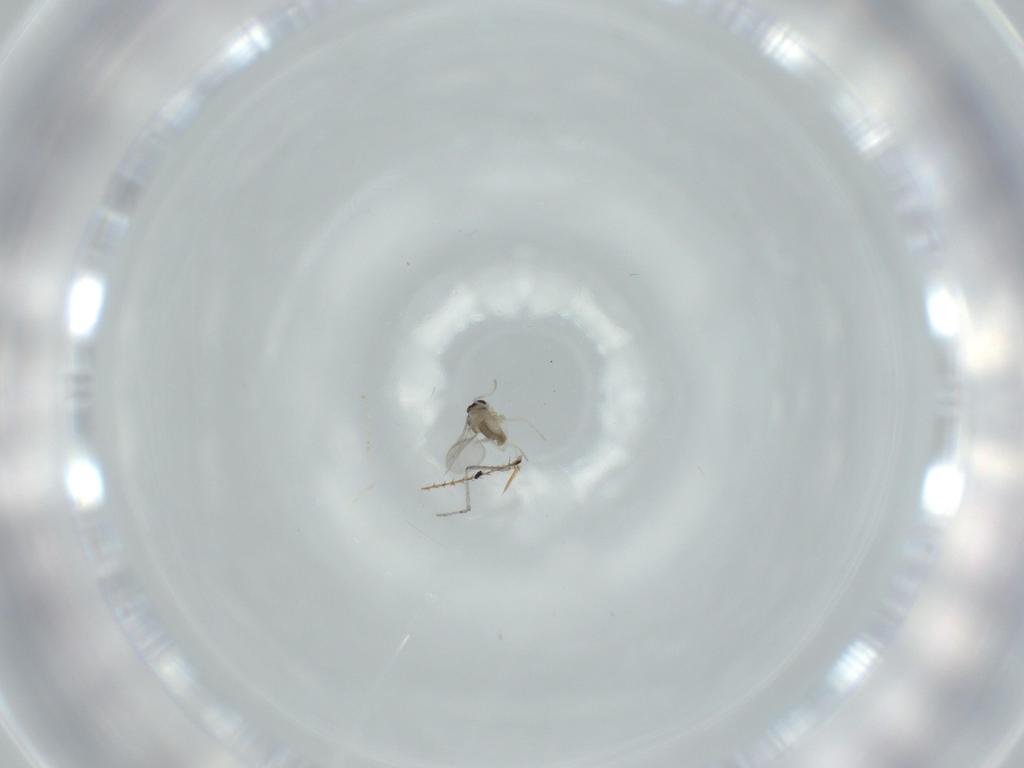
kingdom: Animalia
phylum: Arthropoda
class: Insecta
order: Diptera
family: Cecidomyiidae
